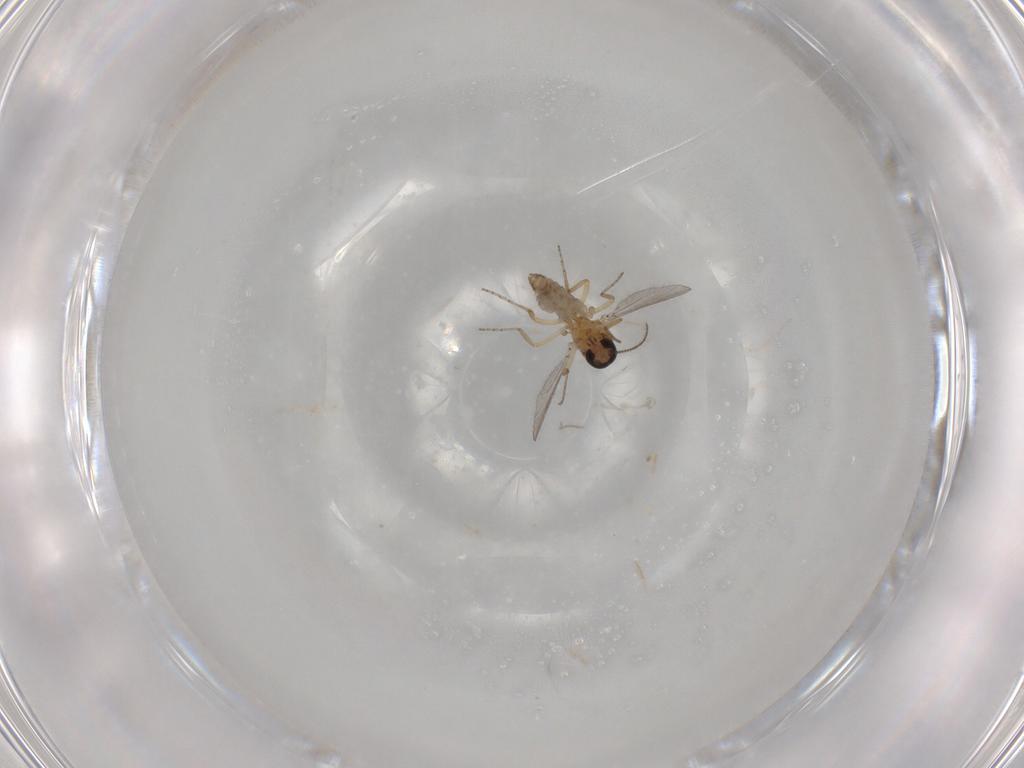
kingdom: Animalia
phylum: Arthropoda
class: Insecta
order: Diptera
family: Ceratopogonidae
